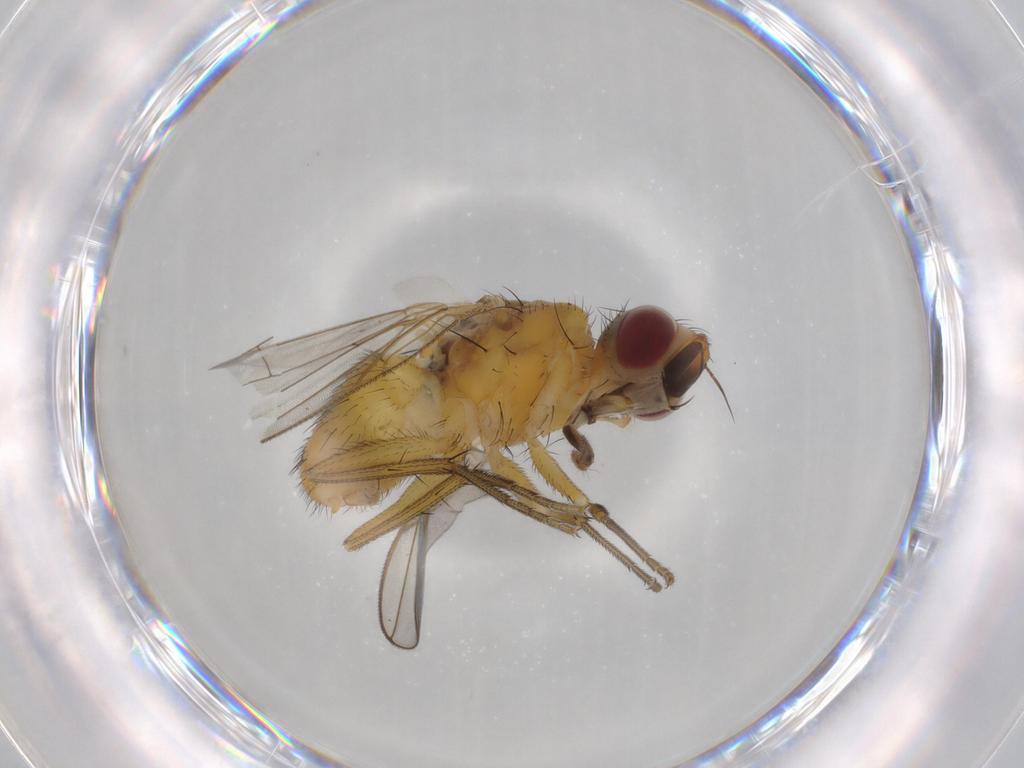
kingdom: Animalia
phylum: Arthropoda
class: Insecta
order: Diptera
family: Muscidae
